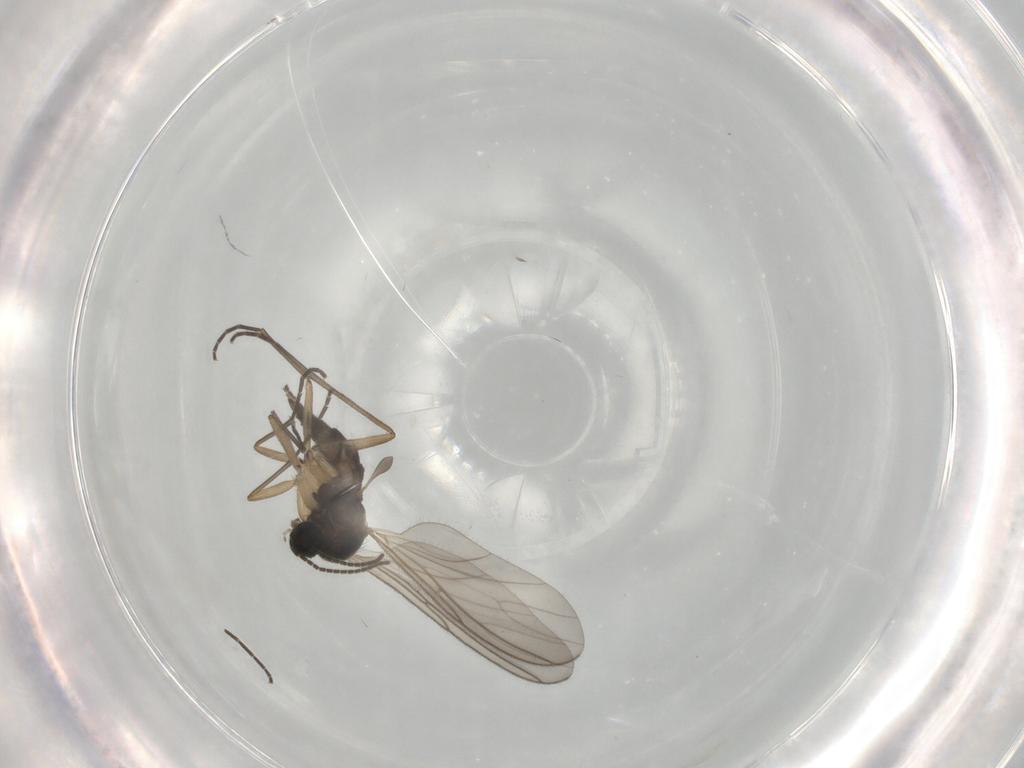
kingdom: Animalia
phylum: Arthropoda
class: Insecta
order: Diptera
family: Sciaridae
